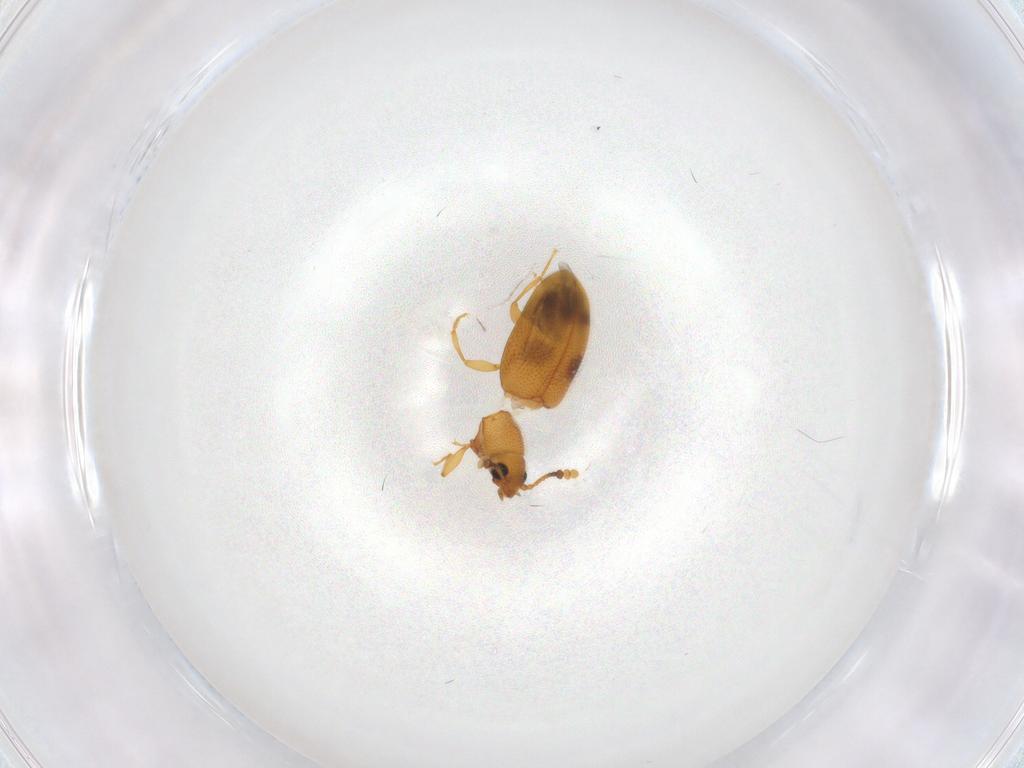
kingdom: Animalia
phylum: Arthropoda
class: Insecta
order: Coleoptera
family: Erotylidae
